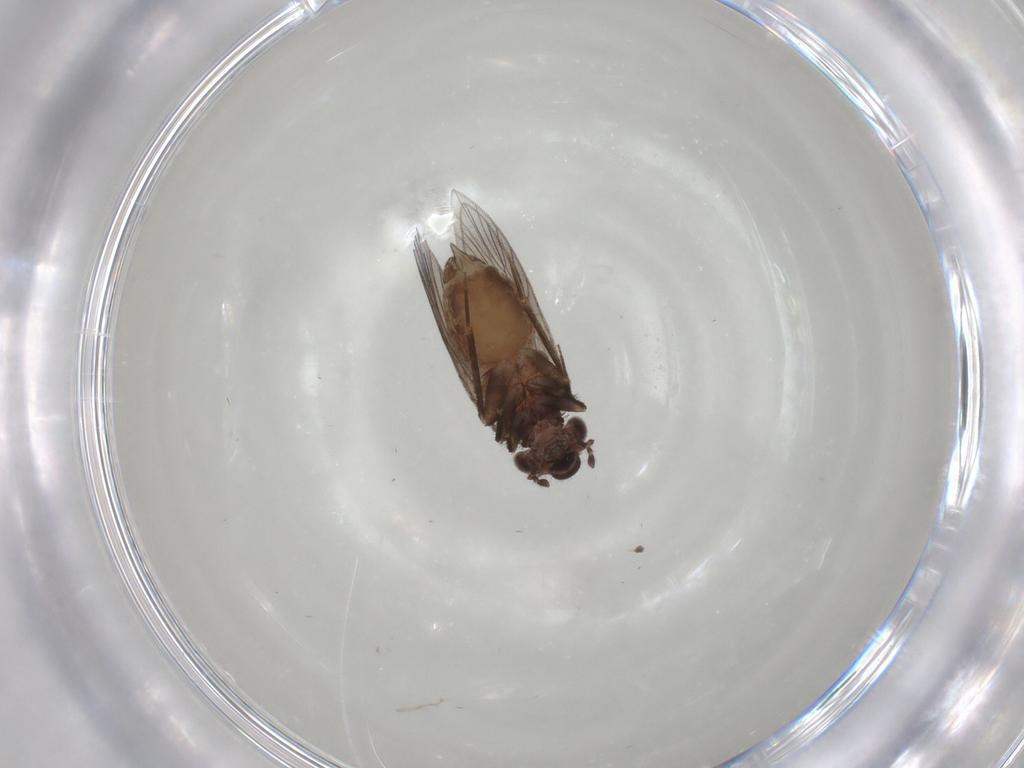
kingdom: Animalia
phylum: Arthropoda
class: Insecta
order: Psocodea
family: Lepidopsocidae
